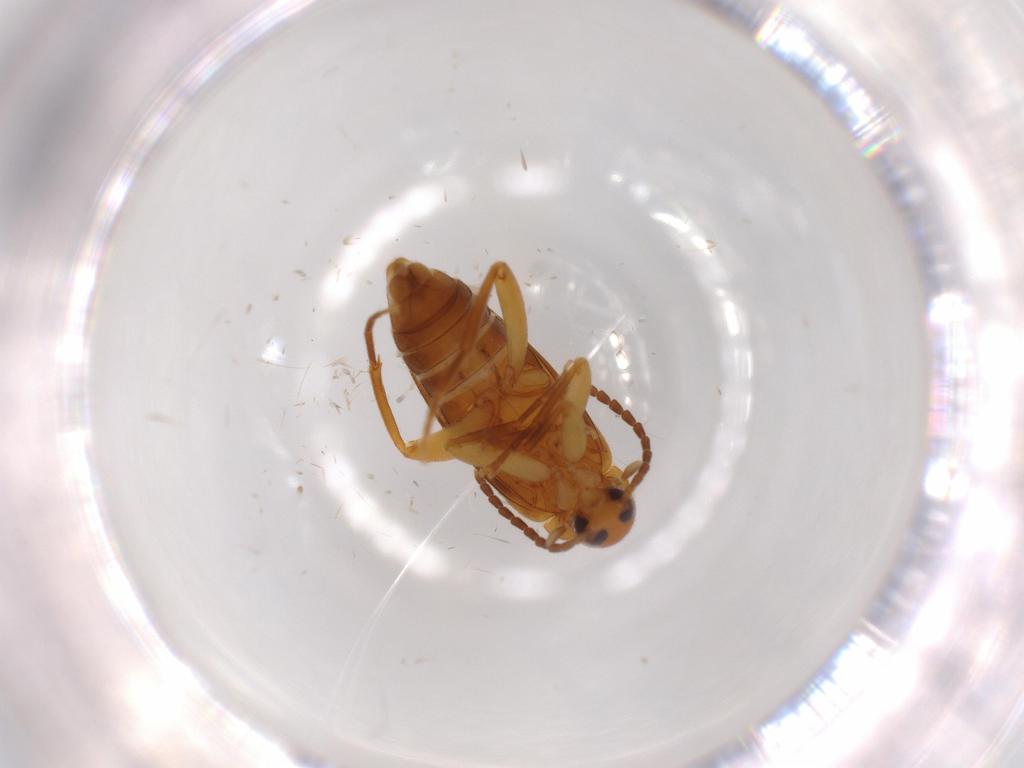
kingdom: Animalia
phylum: Arthropoda
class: Insecta
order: Coleoptera
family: Scraptiidae
